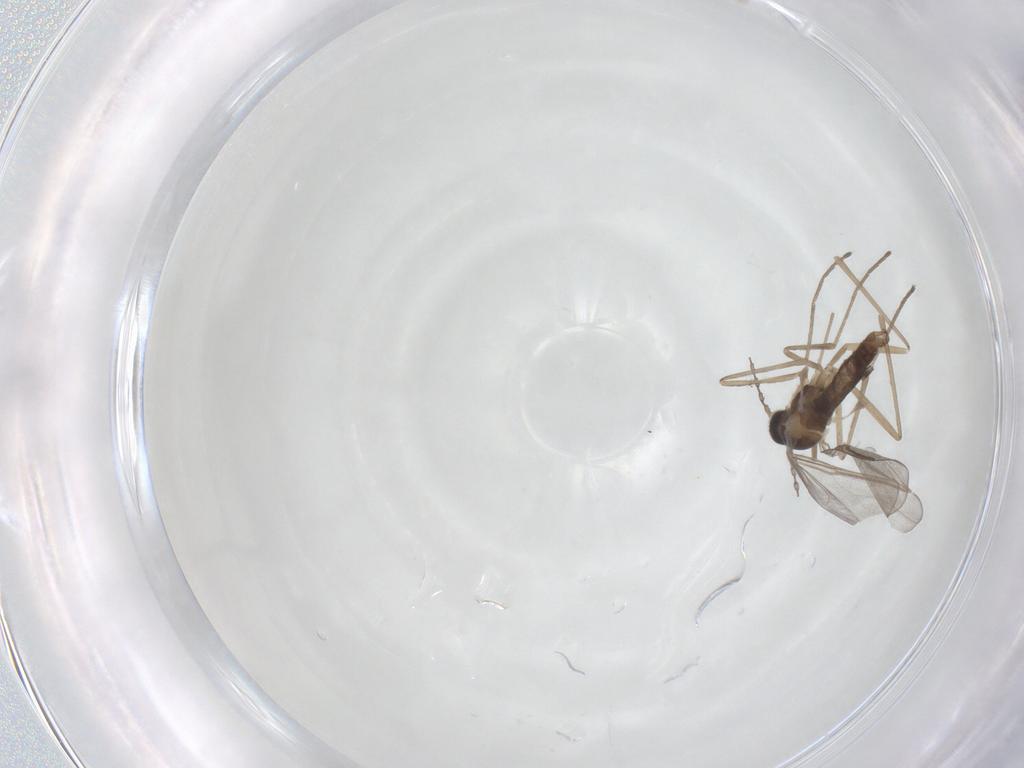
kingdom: Animalia
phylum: Arthropoda
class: Insecta
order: Diptera
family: Cecidomyiidae
